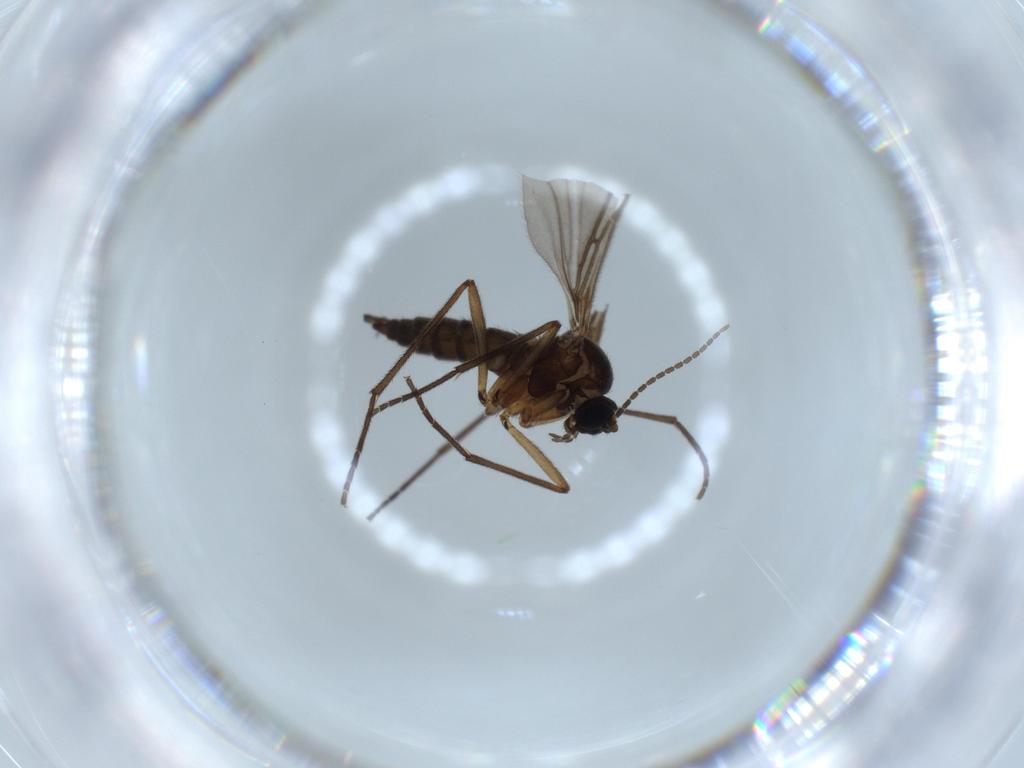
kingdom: Animalia
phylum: Arthropoda
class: Insecta
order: Diptera
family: Sciaridae
